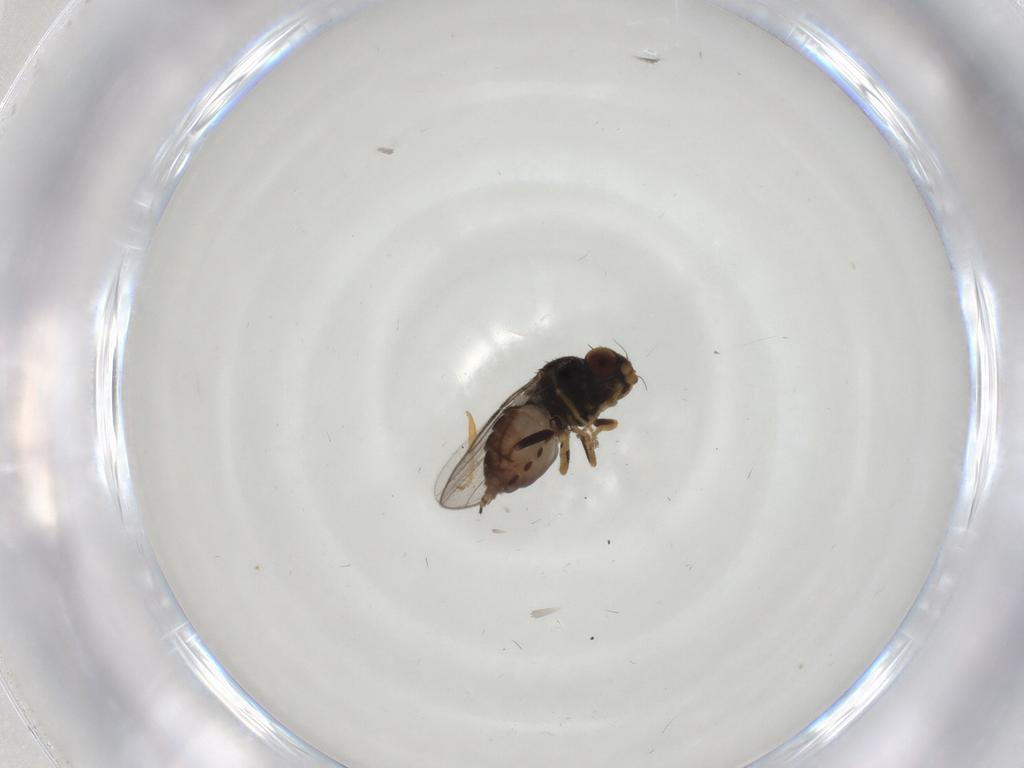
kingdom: Animalia
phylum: Arthropoda
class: Insecta
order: Diptera
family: Chloropidae
